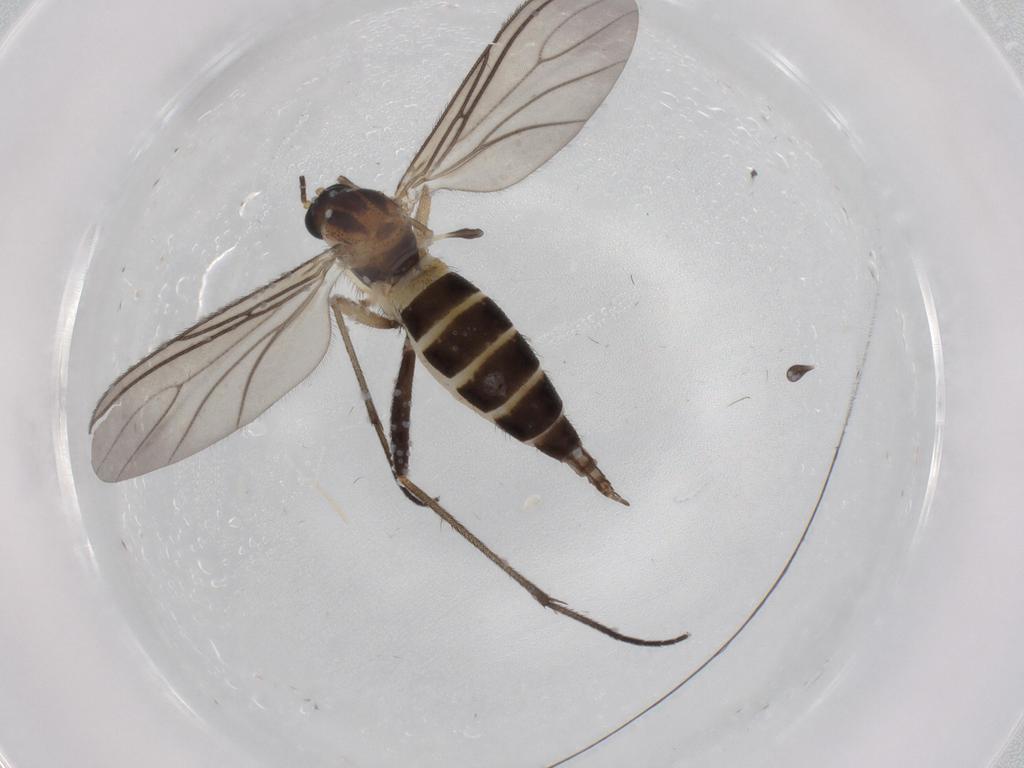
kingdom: Animalia
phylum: Arthropoda
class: Insecta
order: Diptera
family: Sciaridae
